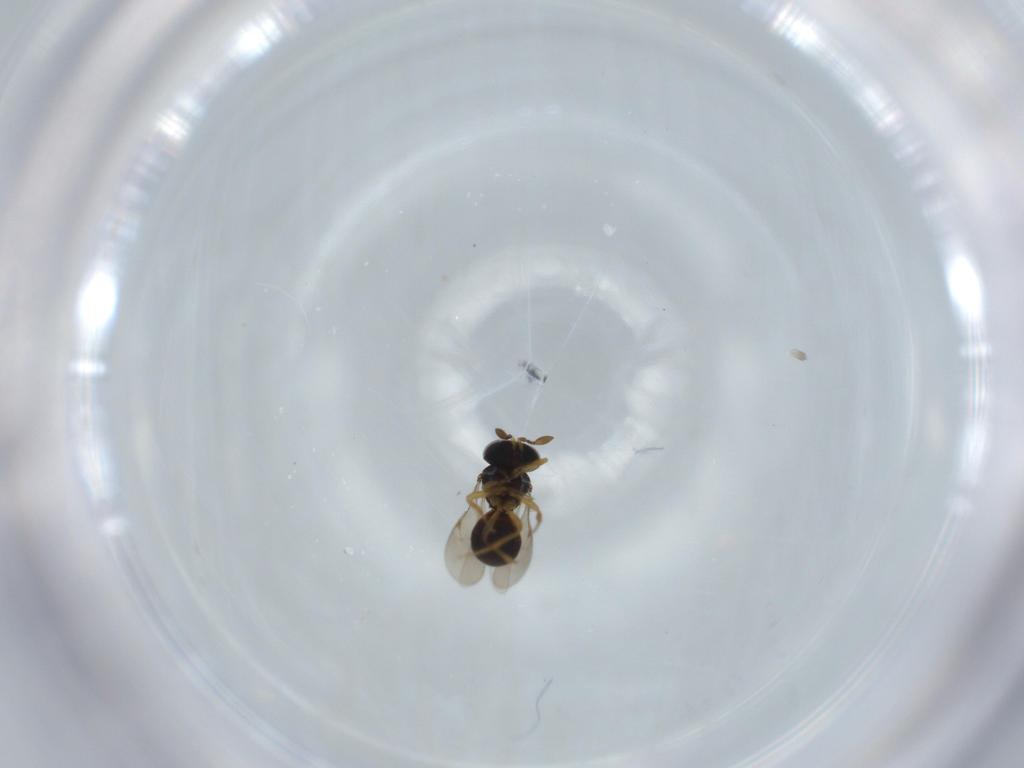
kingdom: Animalia
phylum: Arthropoda
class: Insecta
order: Hymenoptera
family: Scelionidae
